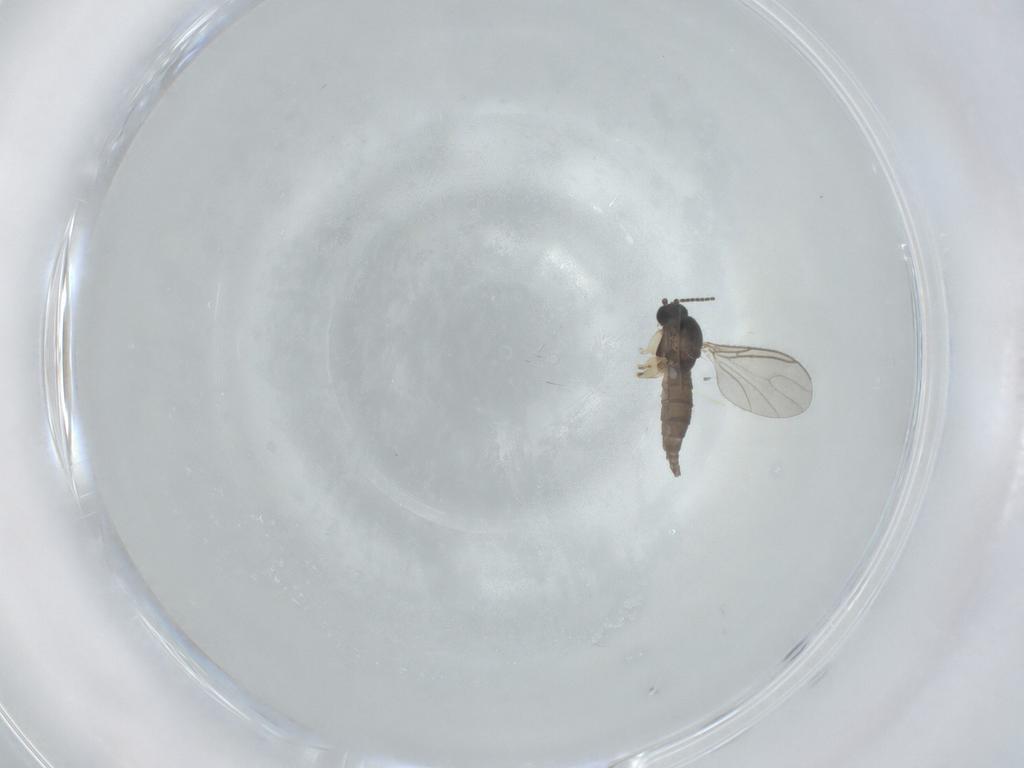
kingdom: Animalia
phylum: Arthropoda
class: Insecta
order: Diptera
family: Sciaridae
